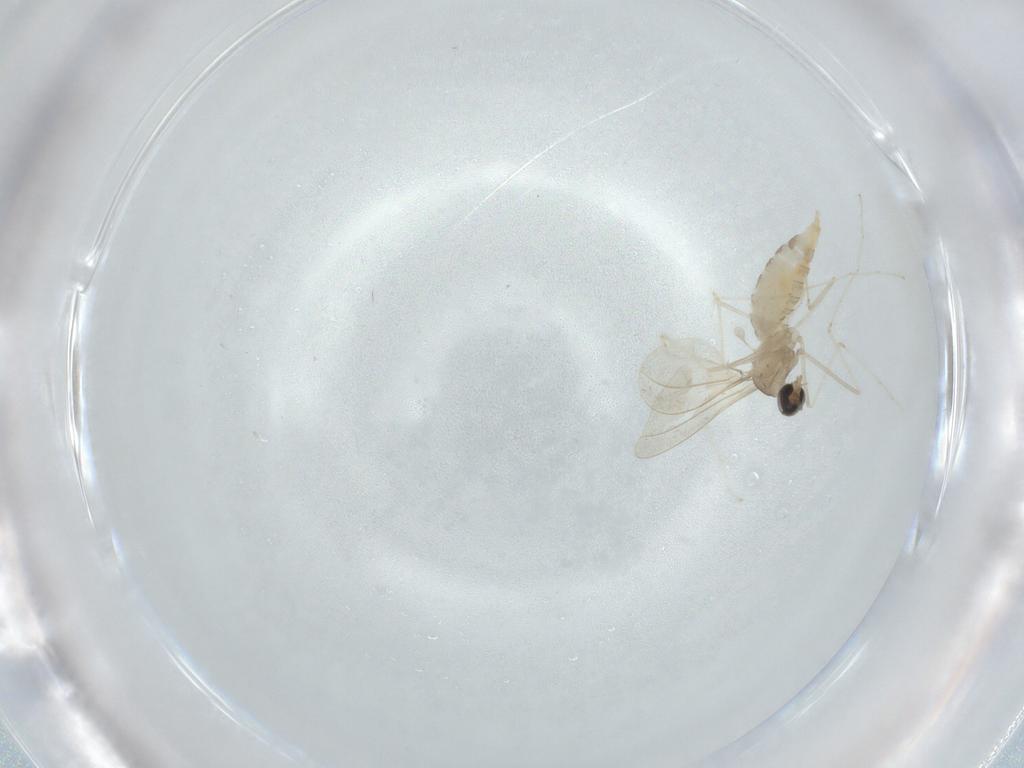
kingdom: Animalia
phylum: Arthropoda
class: Insecta
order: Diptera
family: Cecidomyiidae
